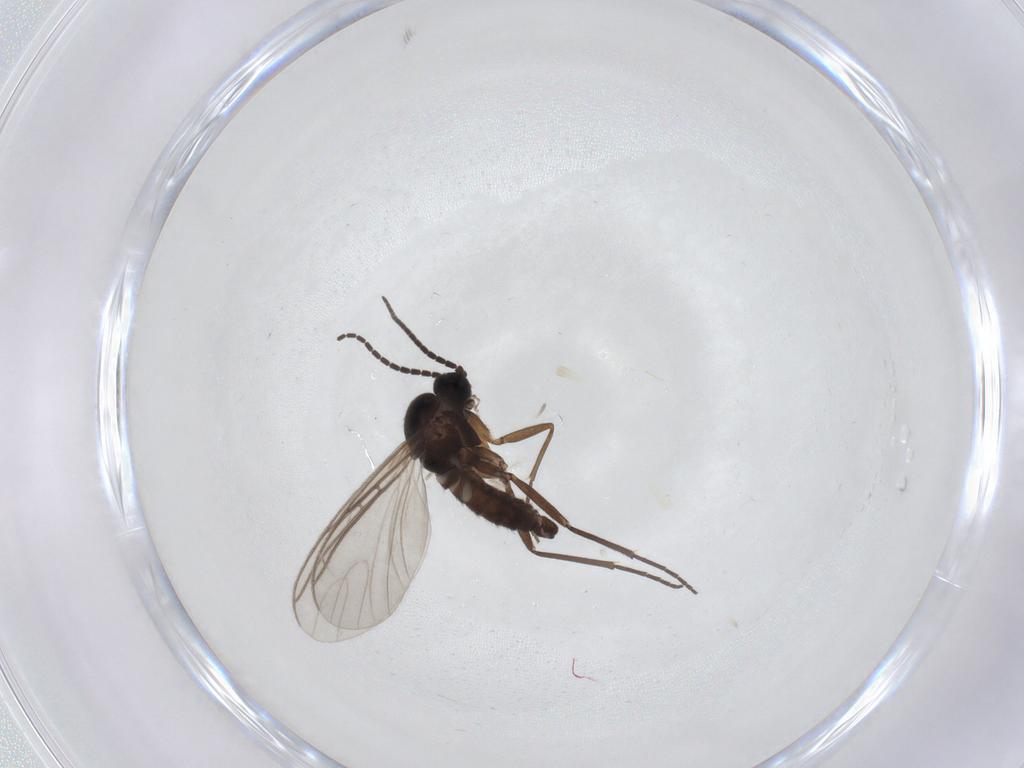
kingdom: Animalia
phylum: Arthropoda
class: Insecta
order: Diptera
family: Sciaridae
